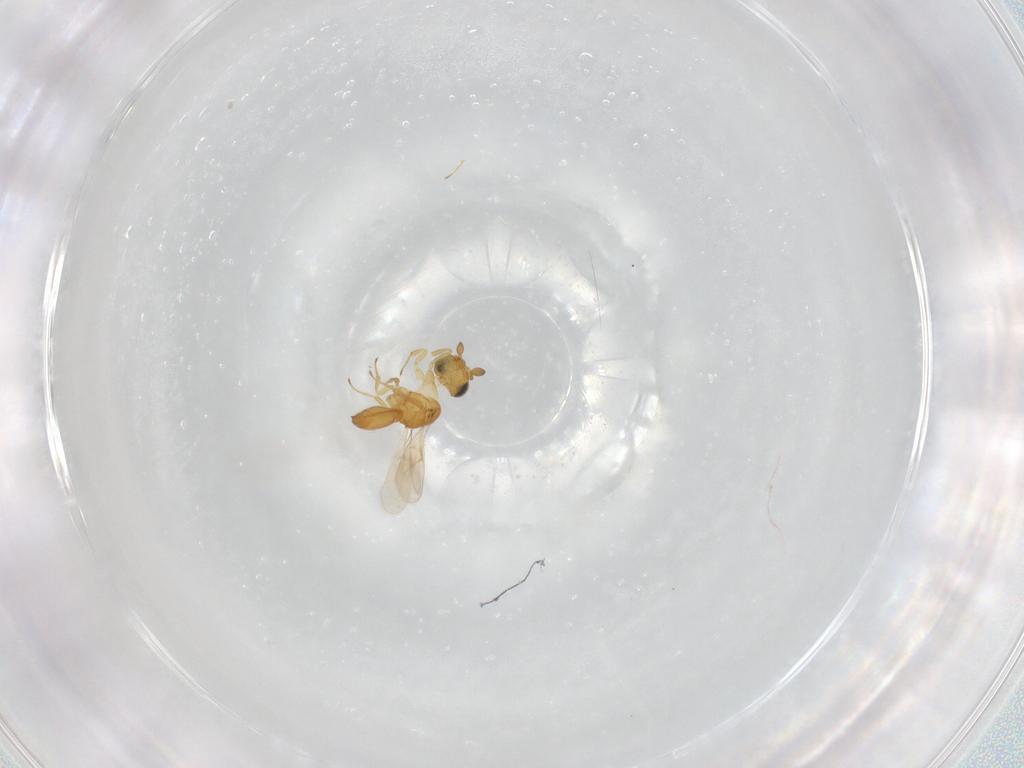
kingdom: Animalia
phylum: Arthropoda
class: Insecta
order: Hymenoptera
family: Scelionidae
